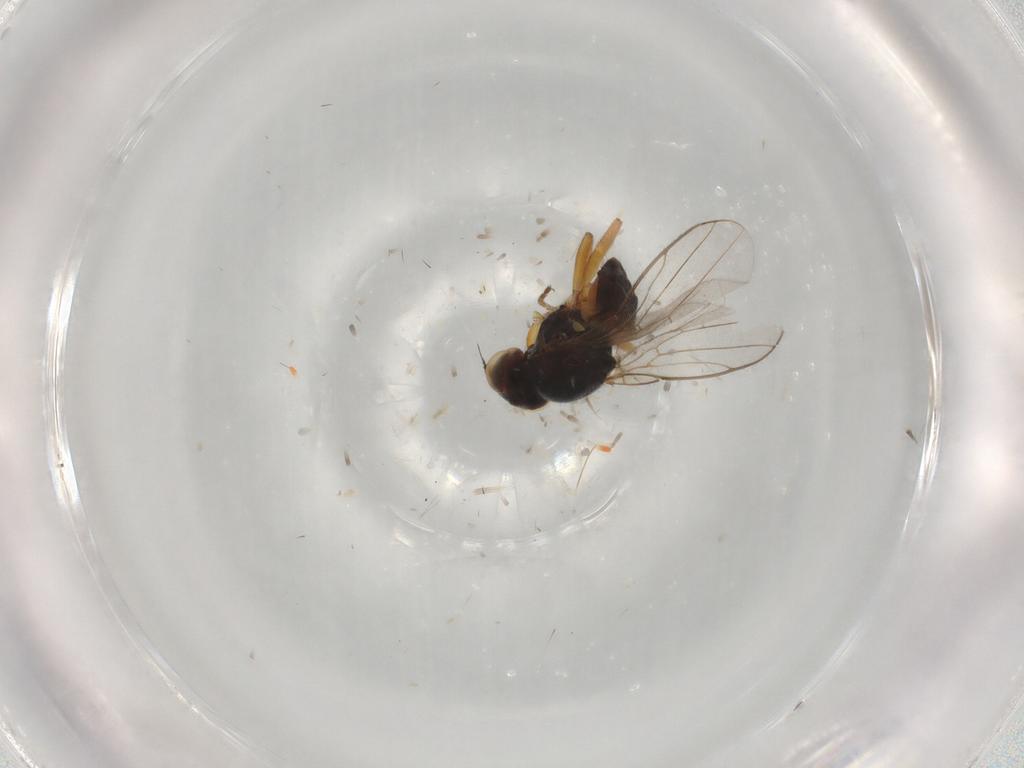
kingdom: Animalia
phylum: Arthropoda
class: Insecta
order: Diptera
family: Chloropidae
